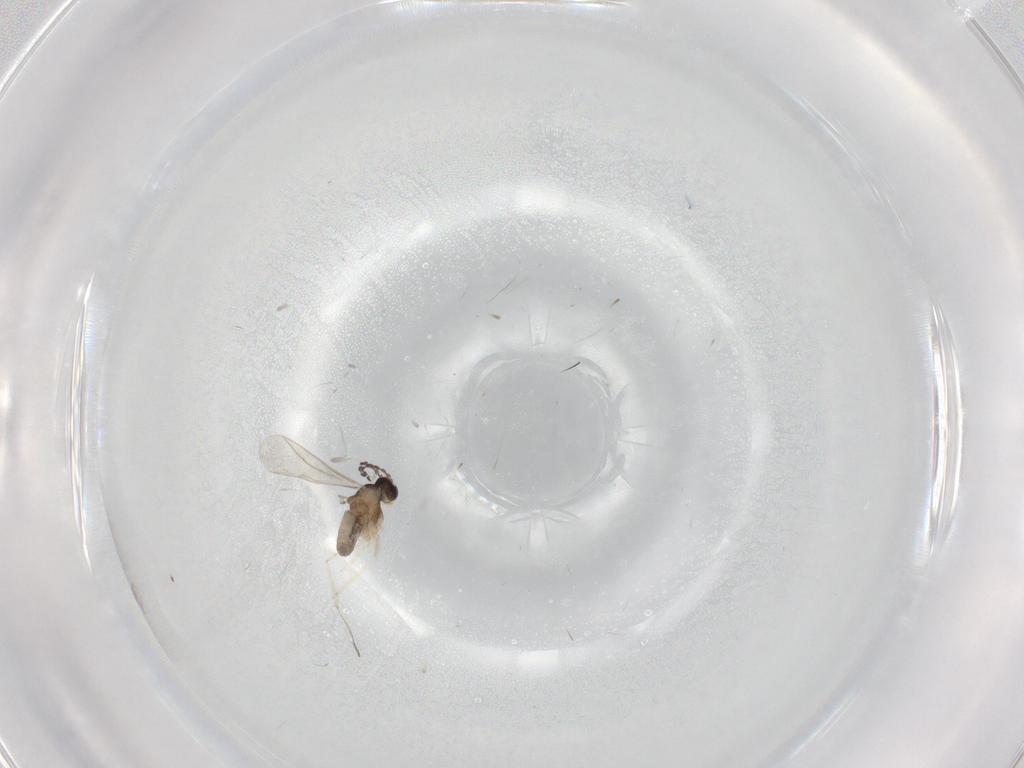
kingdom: Animalia
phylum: Arthropoda
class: Insecta
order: Diptera
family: Cecidomyiidae
